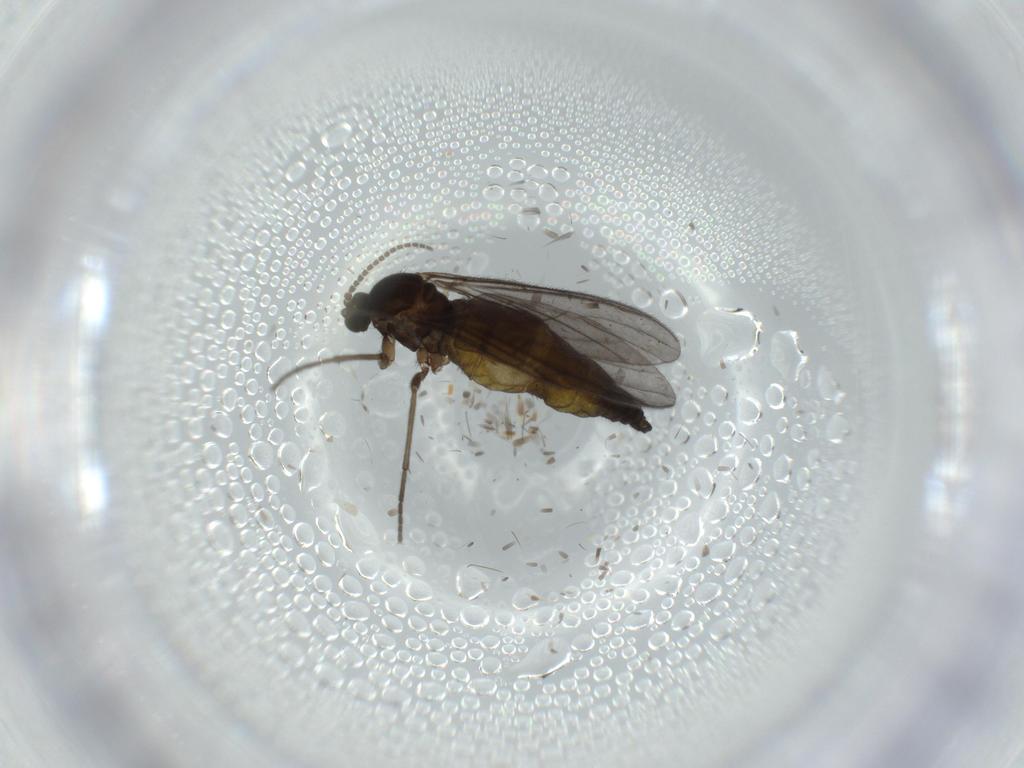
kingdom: Animalia
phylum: Arthropoda
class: Insecta
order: Diptera
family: Sciaridae
